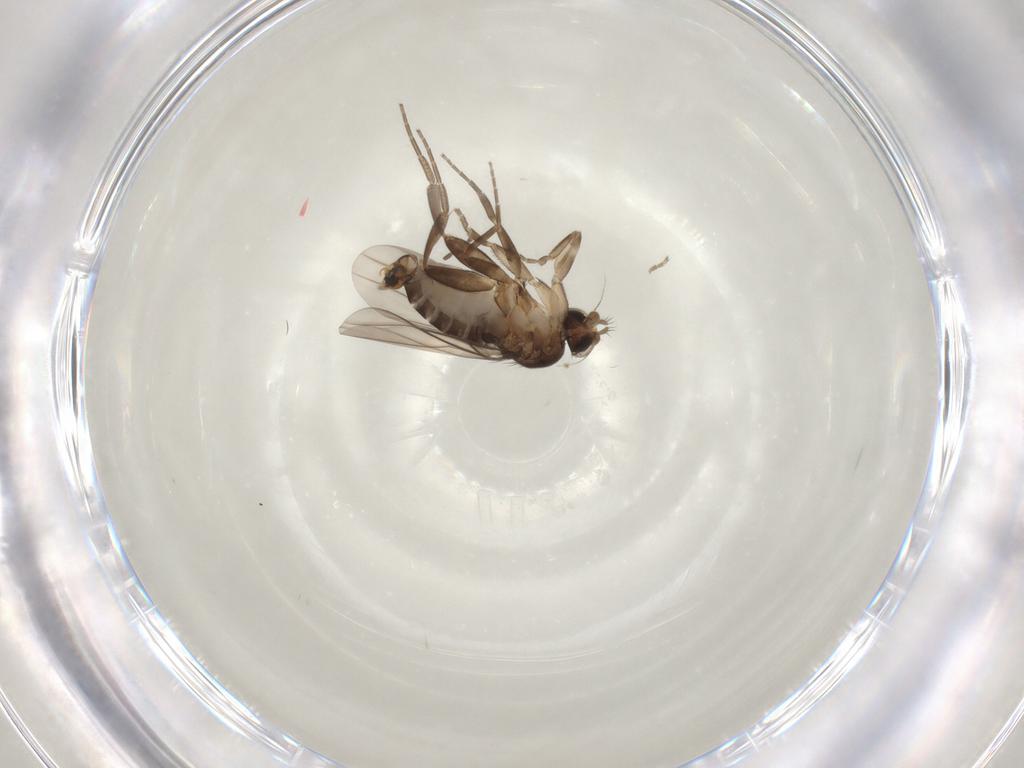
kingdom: Animalia
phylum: Arthropoda
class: Insecta
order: Diptera
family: Phoridae
